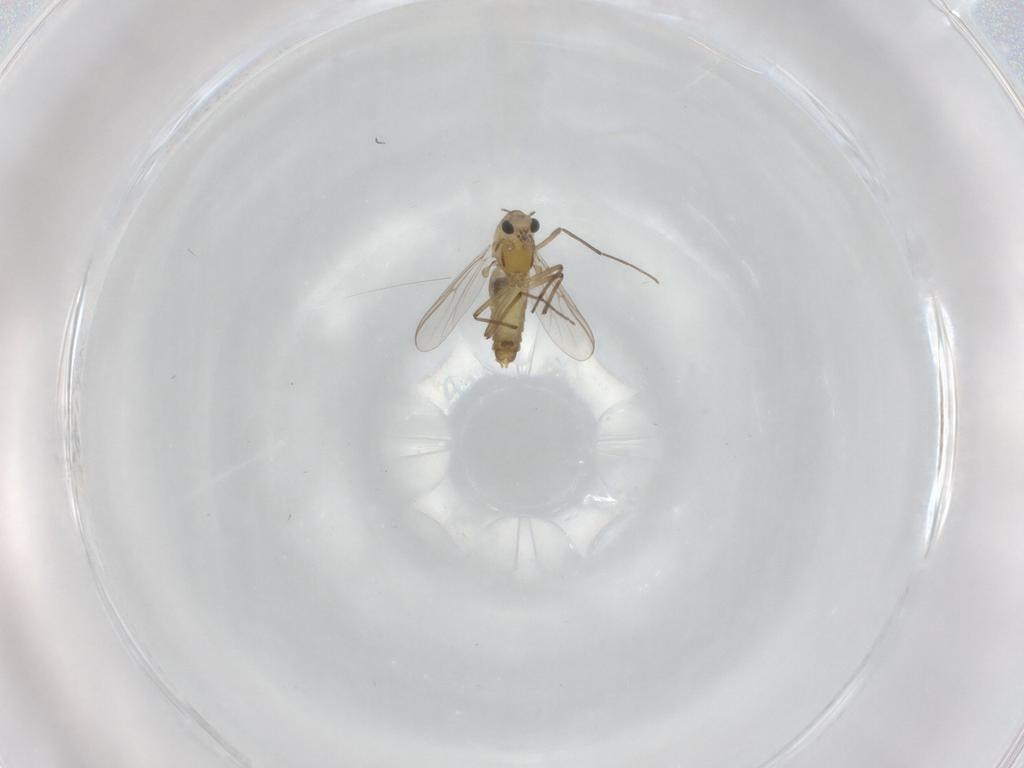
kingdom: Animalia
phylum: Arthropoda
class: Insecta
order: Diptera
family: Chironomidae
